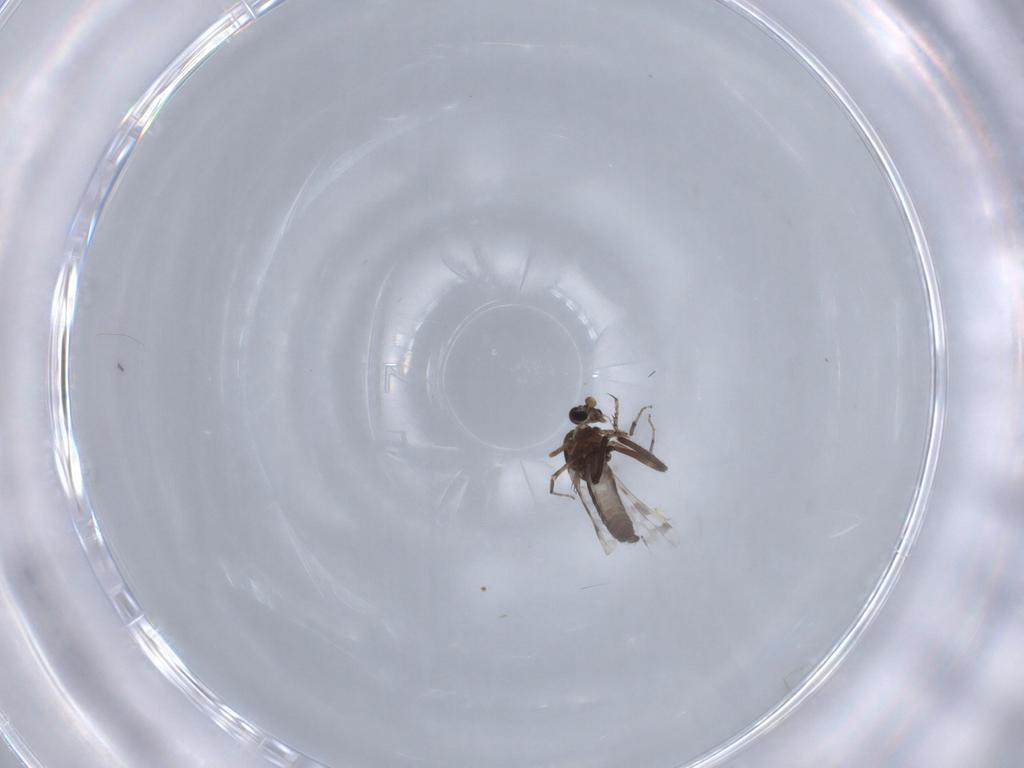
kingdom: Animalia
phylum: Arthropoda
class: Insecta
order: Diptera
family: Ceratopogonidae
